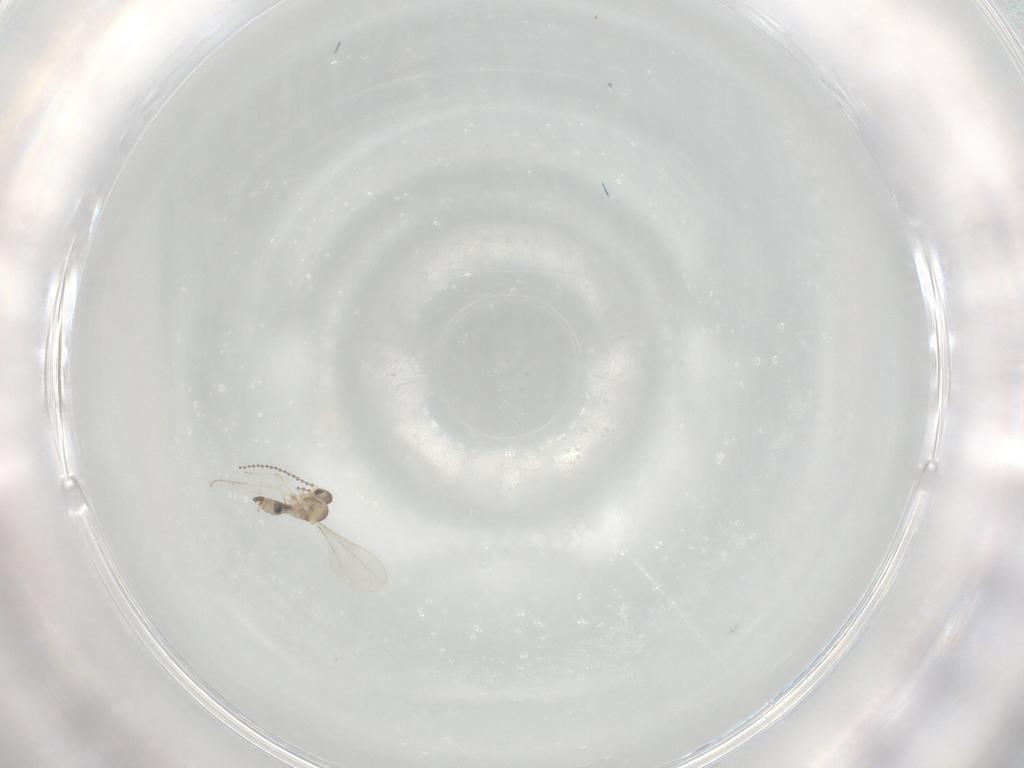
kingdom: Animalia
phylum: Arthropoda
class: Insecta
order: Diptera
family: Cecidomyiidae
